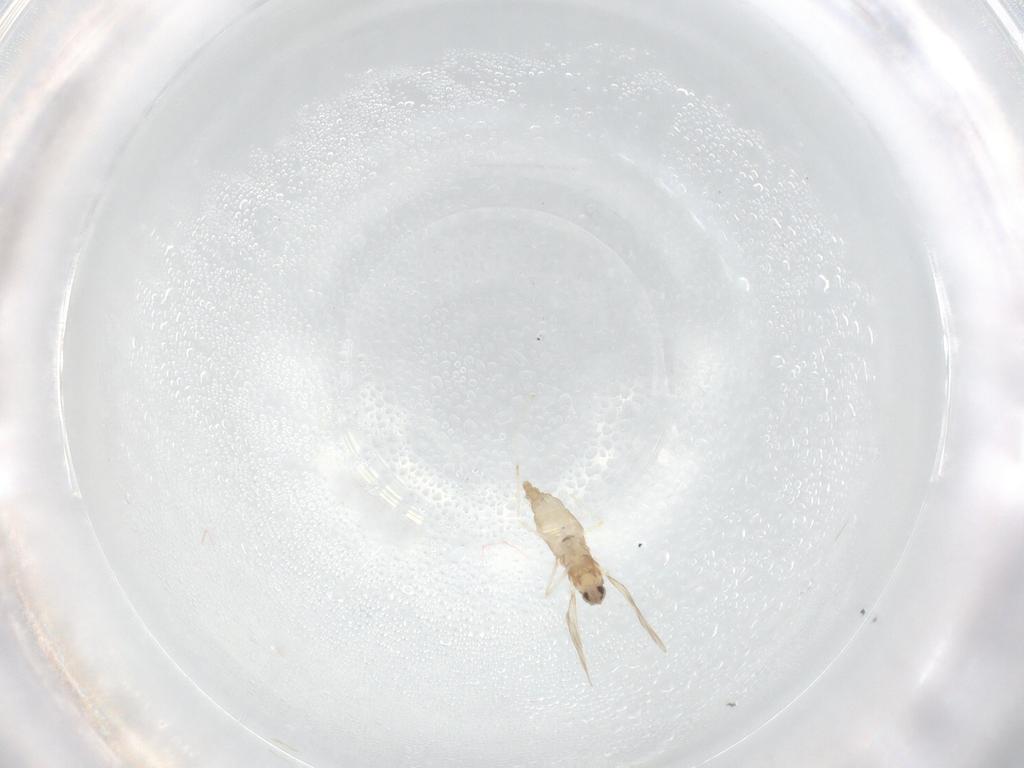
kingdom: Animalia
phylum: Arthropoda
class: Insecta
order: Diptera
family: Cecidomyiidae
